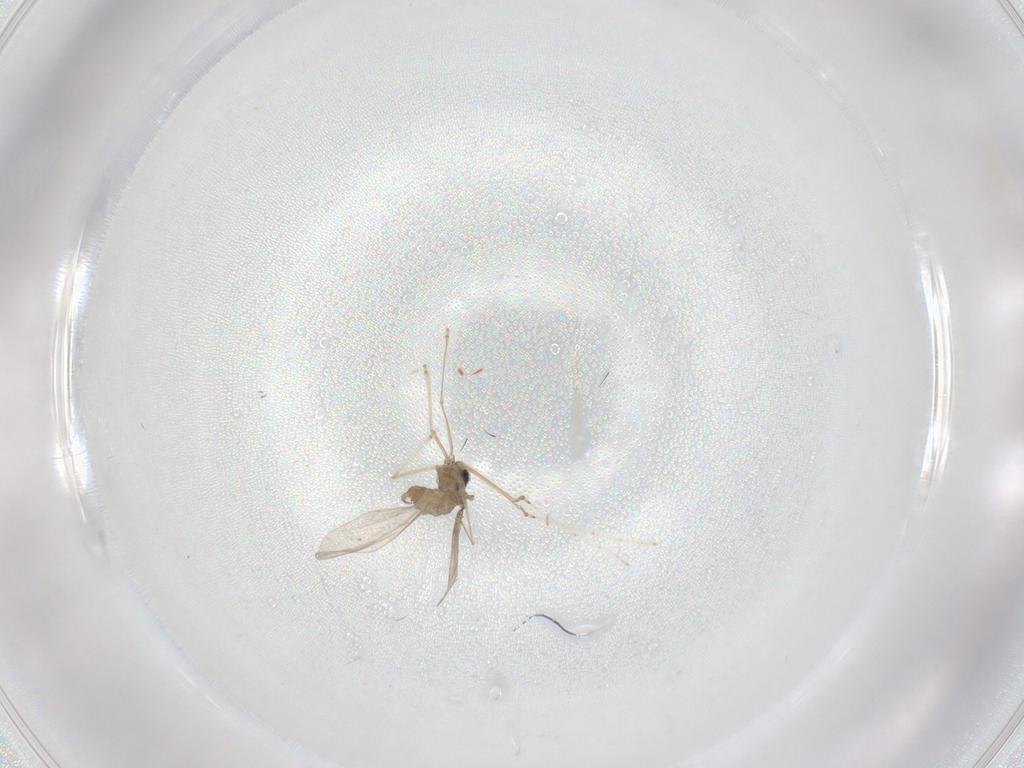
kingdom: Animalia
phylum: Arthropoda
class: Insecta
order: Diptera
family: Cecidomyiidae
